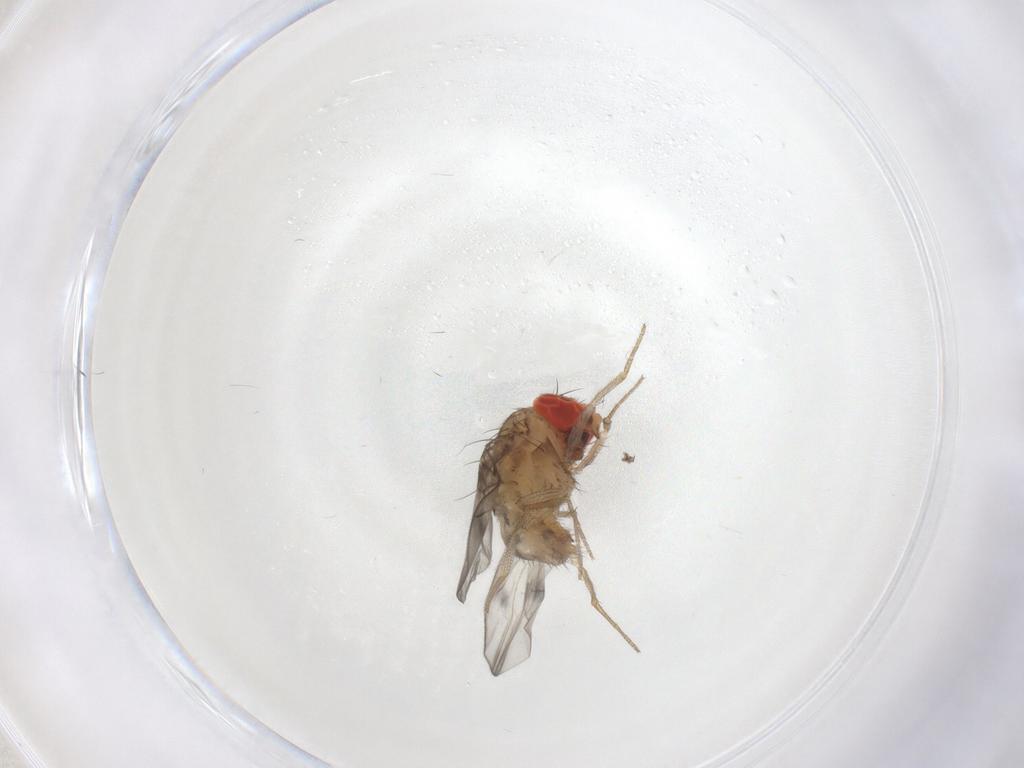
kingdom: Animalia
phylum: Arthropoda
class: Insecta
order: Diptera
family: Drosophilidae
